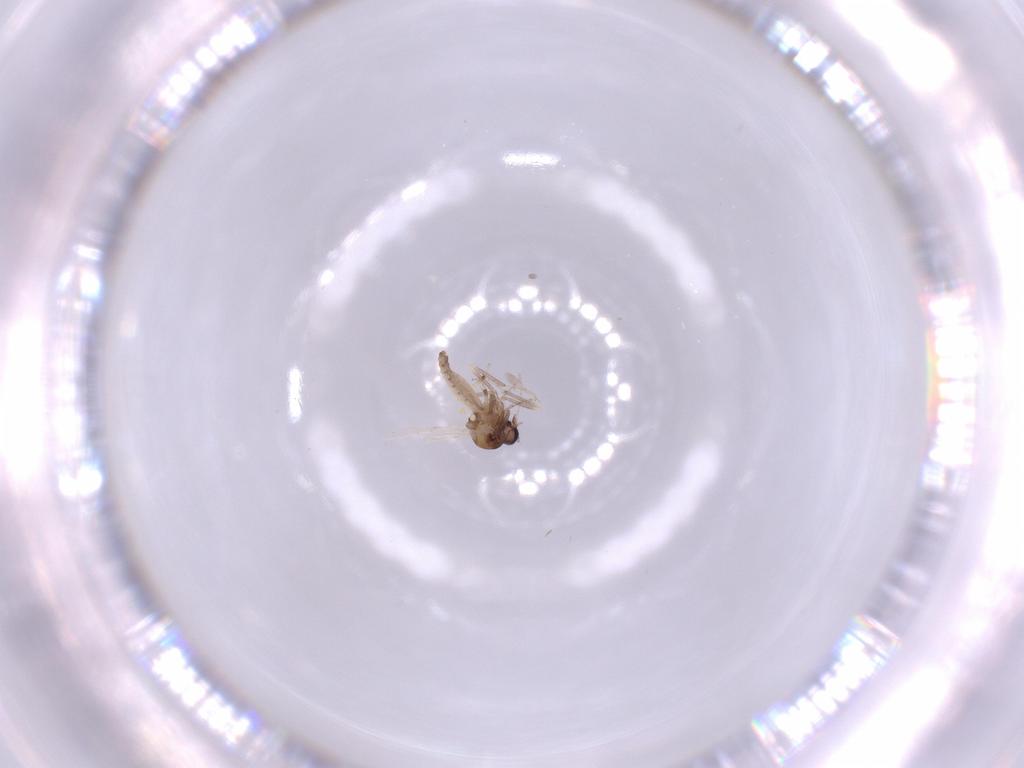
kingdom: Animalia
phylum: Arthropoda
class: Insecta
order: Diptera
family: Ceratopogonidae
